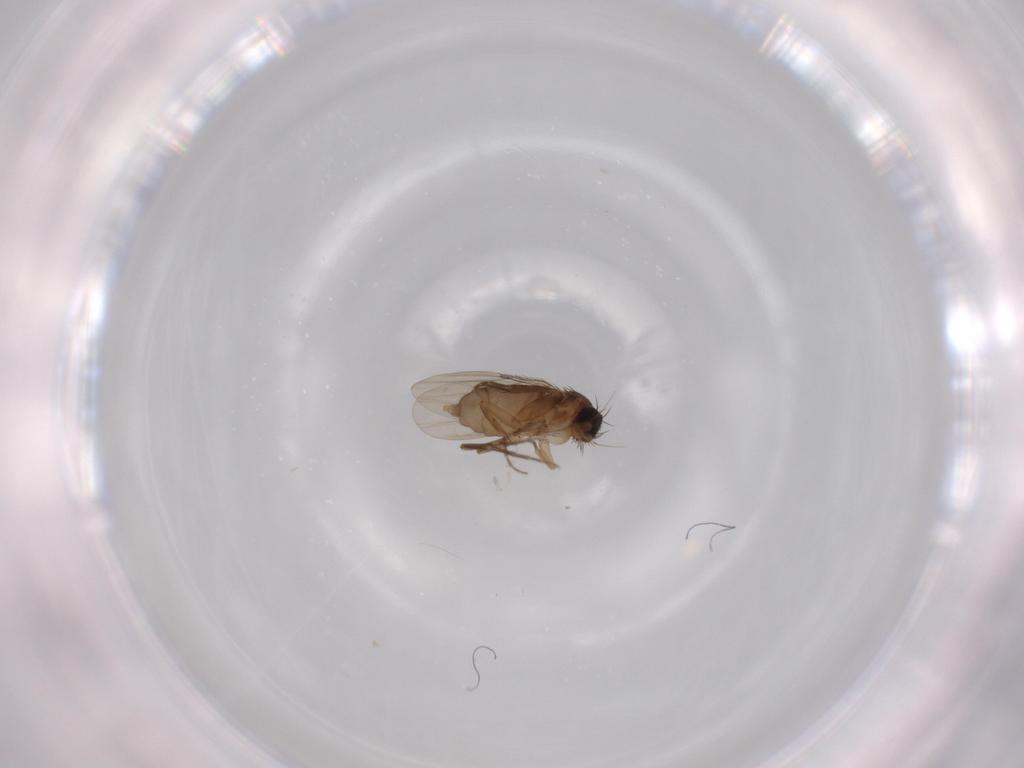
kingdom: Animalia
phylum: Arthropoda
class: Insecta
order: Diptera
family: Phoridae
